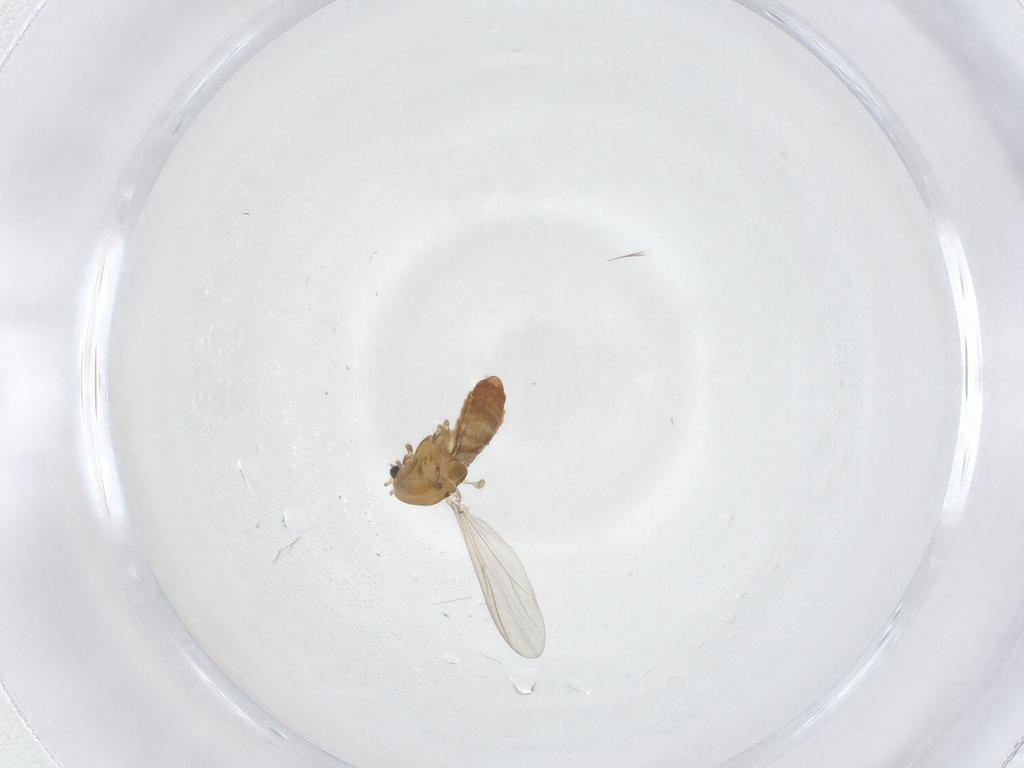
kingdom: Animalia
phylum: Arthropoda
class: Insecta
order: Diptera
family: Chironomidae
